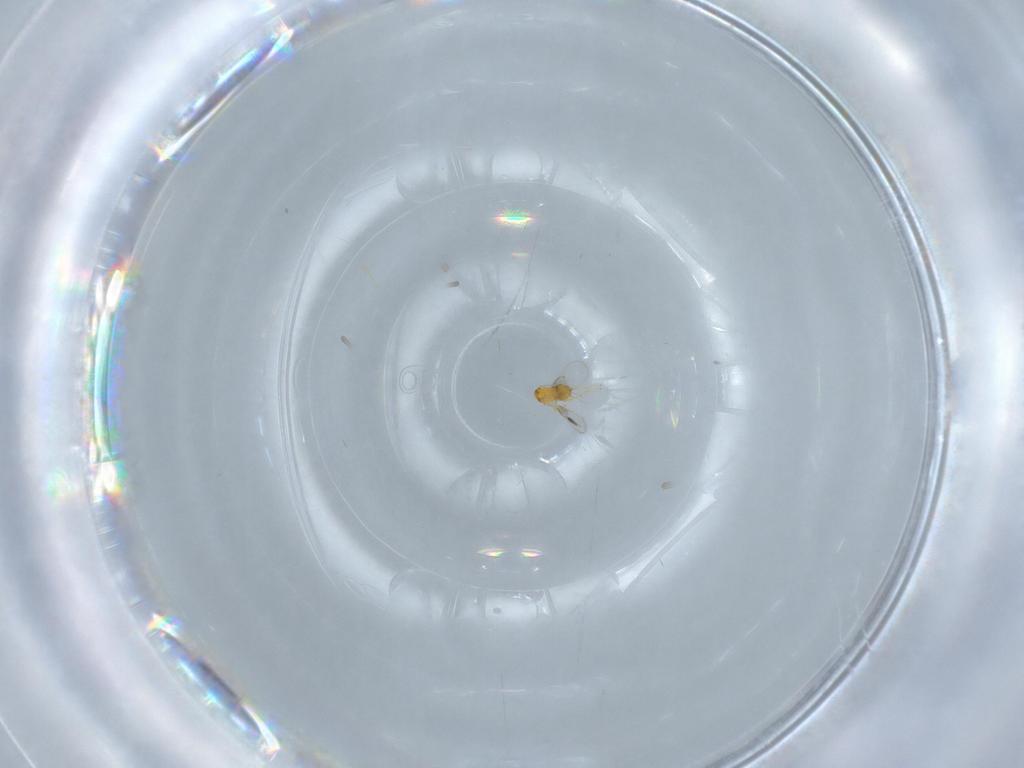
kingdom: Animalia
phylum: Arthropoda
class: Insecta
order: Hymenoptera
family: Trichogrammatidae
